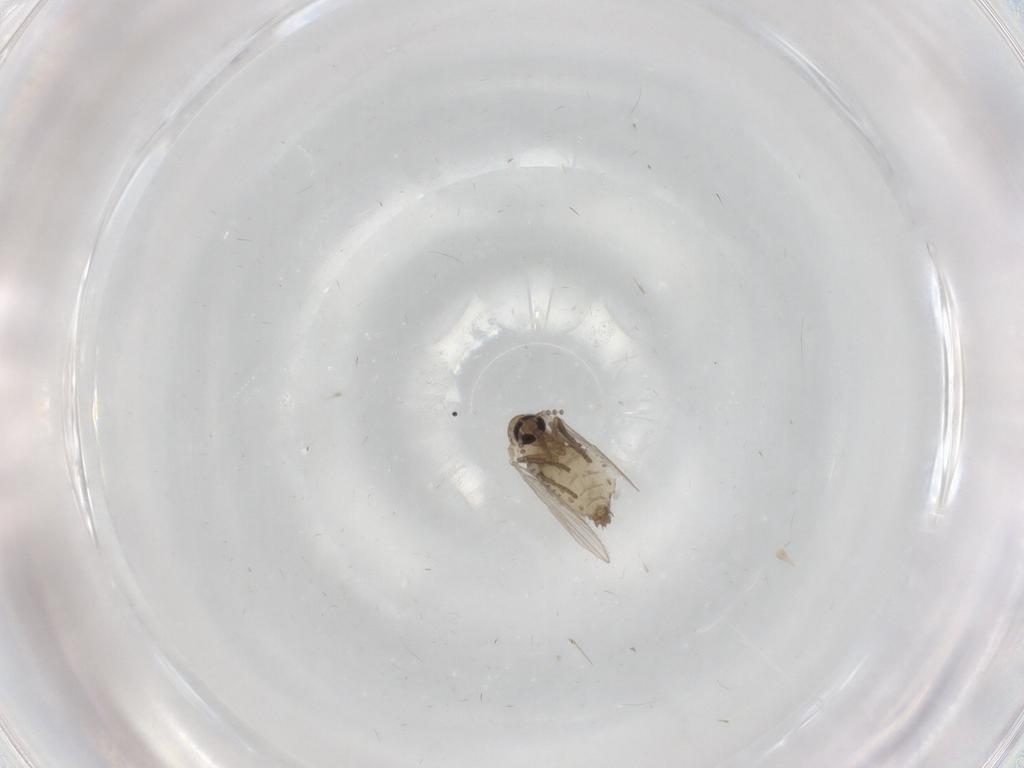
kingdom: Animalia
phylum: Arthropoda
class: Insecta
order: Diptera
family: Psychodidae
